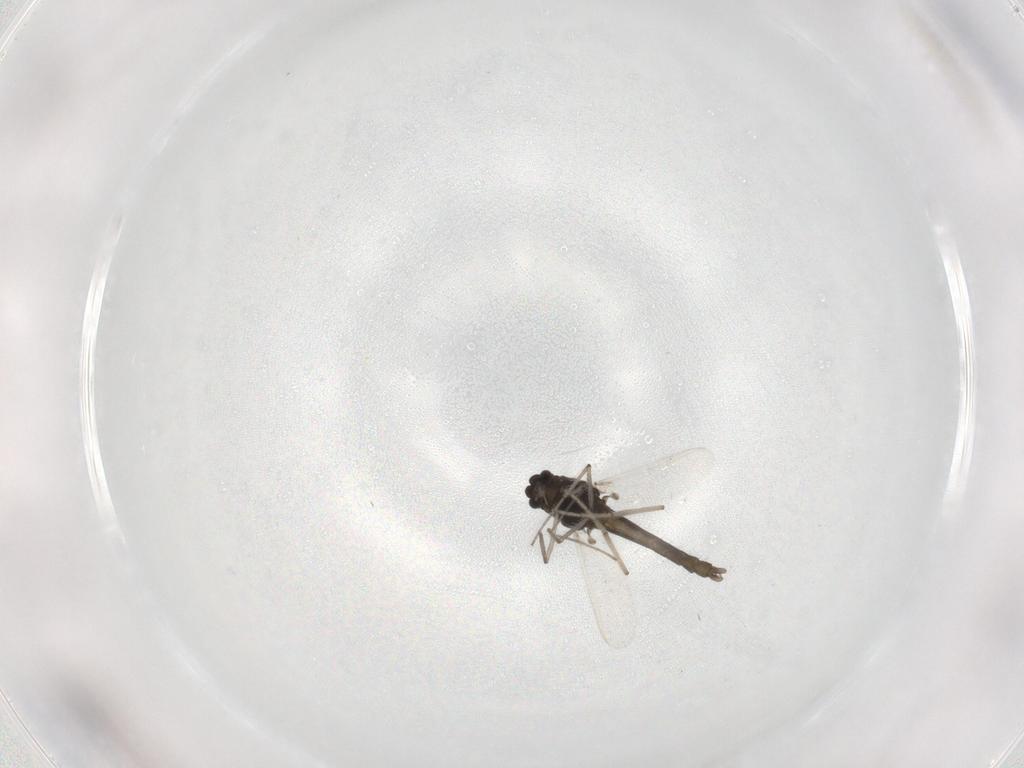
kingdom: Animalia
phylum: Arthropoda
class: Insecta
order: Diptera
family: Chironomidae
